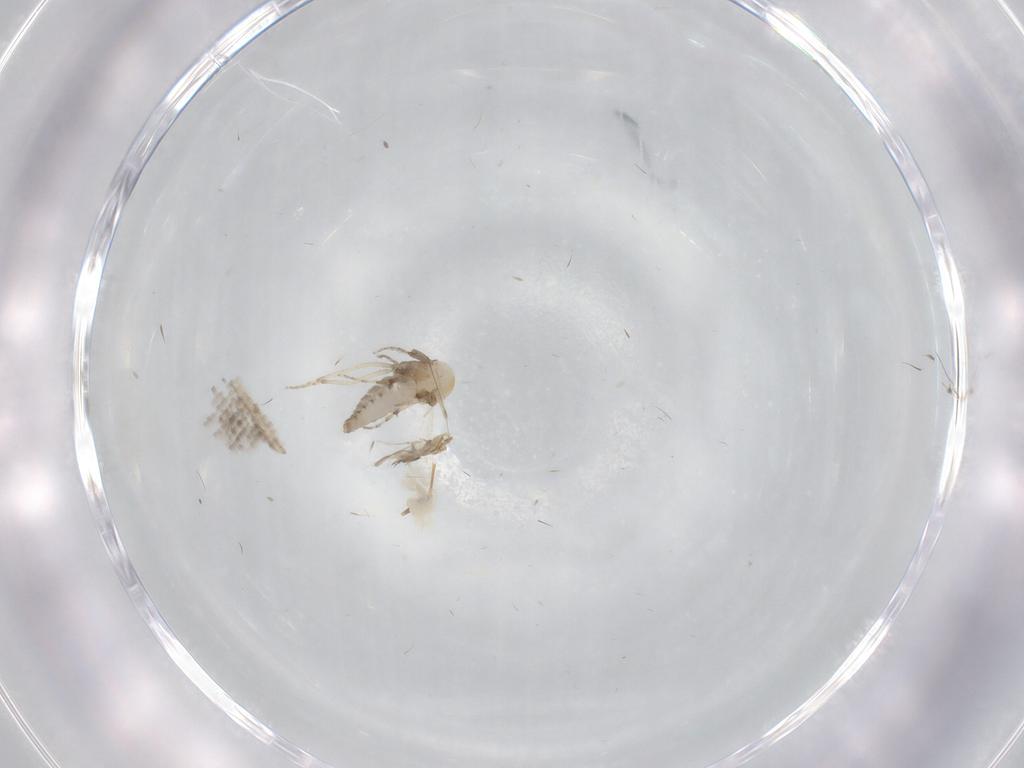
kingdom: Animalia
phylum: Arthropoda
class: Insecta
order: Diptera
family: Ceratopogonidae
